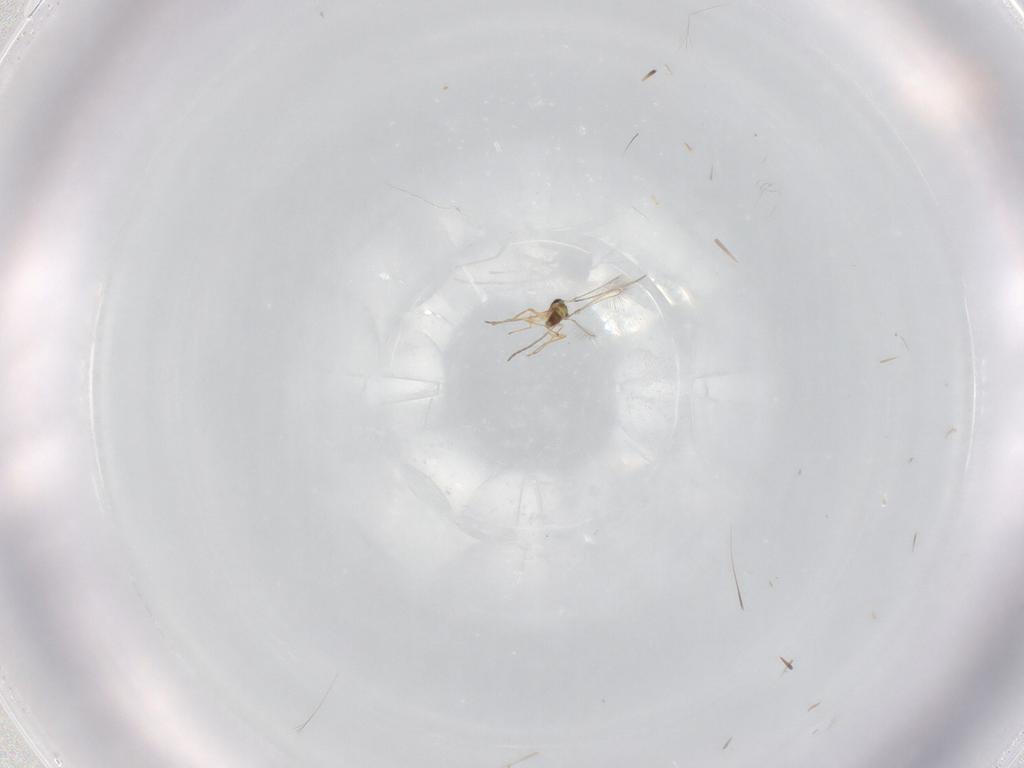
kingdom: Animalia
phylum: Arthropoda
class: Insecta
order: Hymenoptera
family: Mymaridae
